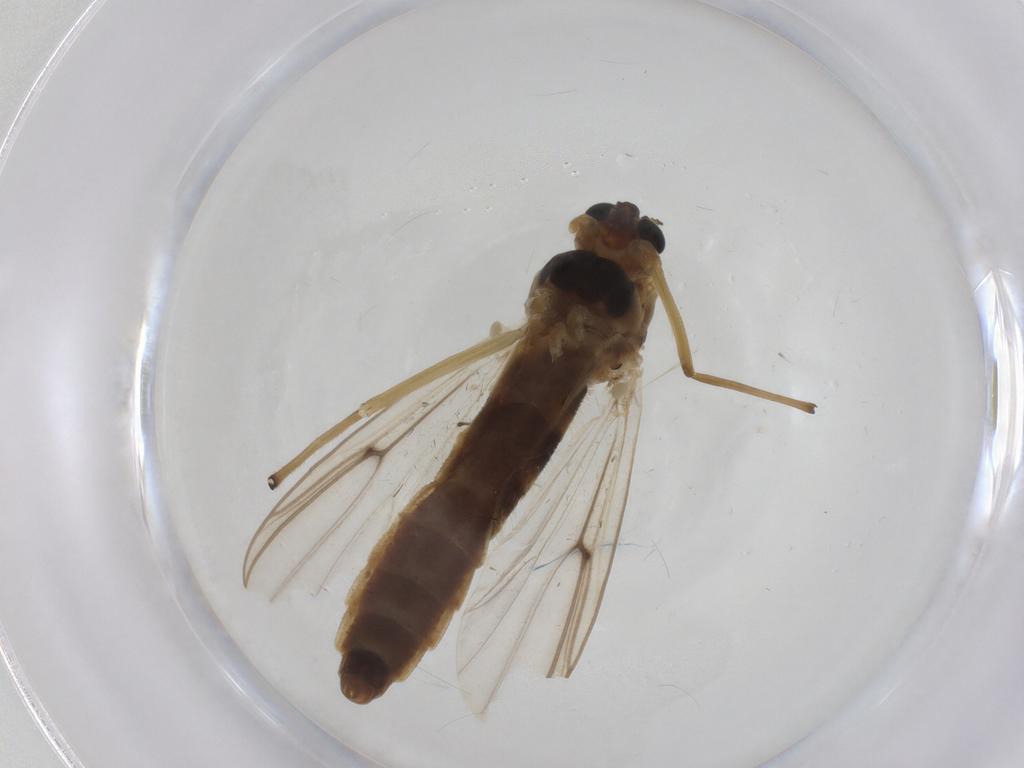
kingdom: Animalia
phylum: Arthropoda
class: Insecta
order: Diptera
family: Chironomidae
